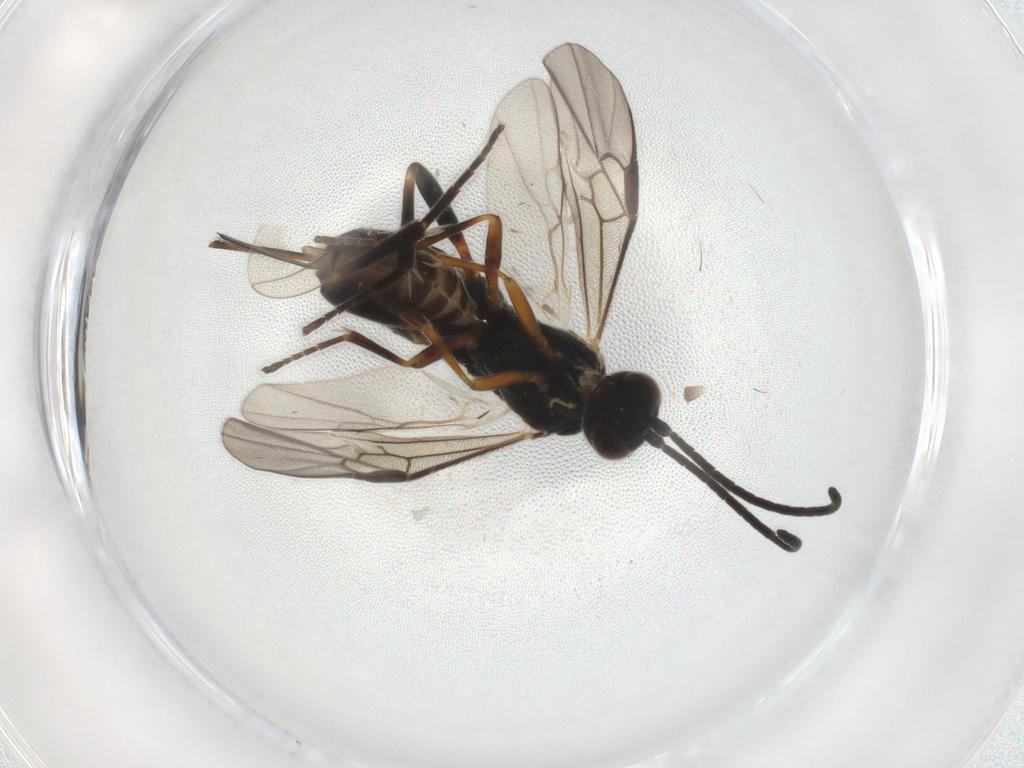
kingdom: Animalia
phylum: Arthropoda
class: Insecta
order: Hymenoptera
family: Braconidae
